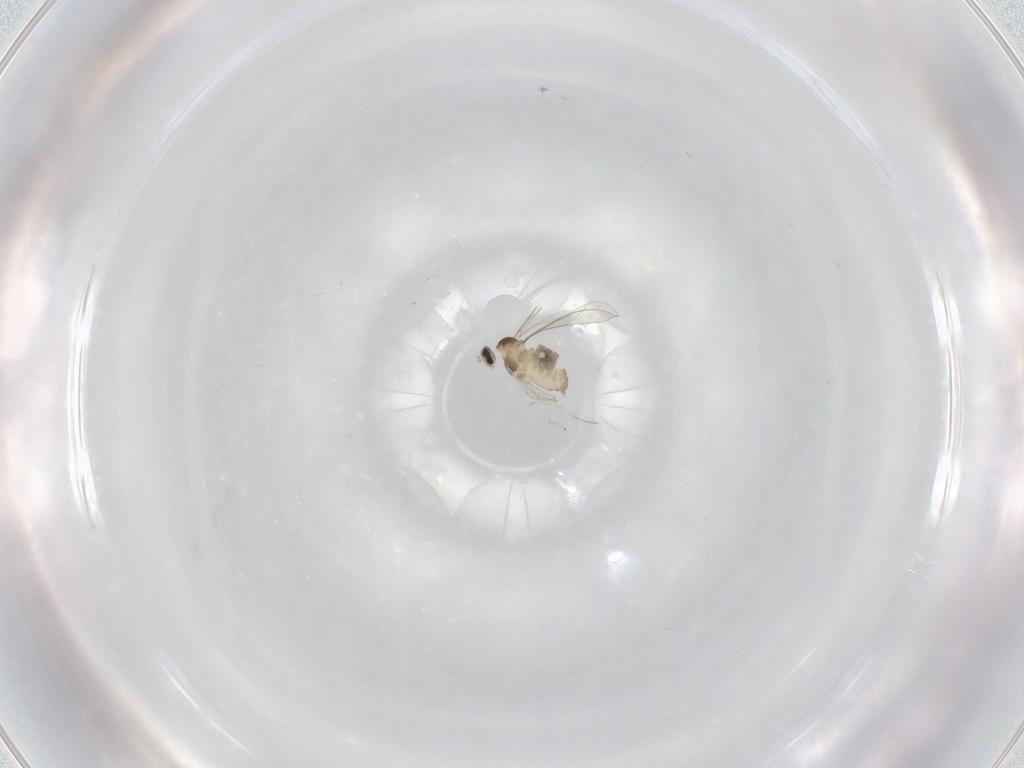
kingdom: Animalia
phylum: Arthropoda
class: Insecta
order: Diptera
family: Cecidomyiidae
